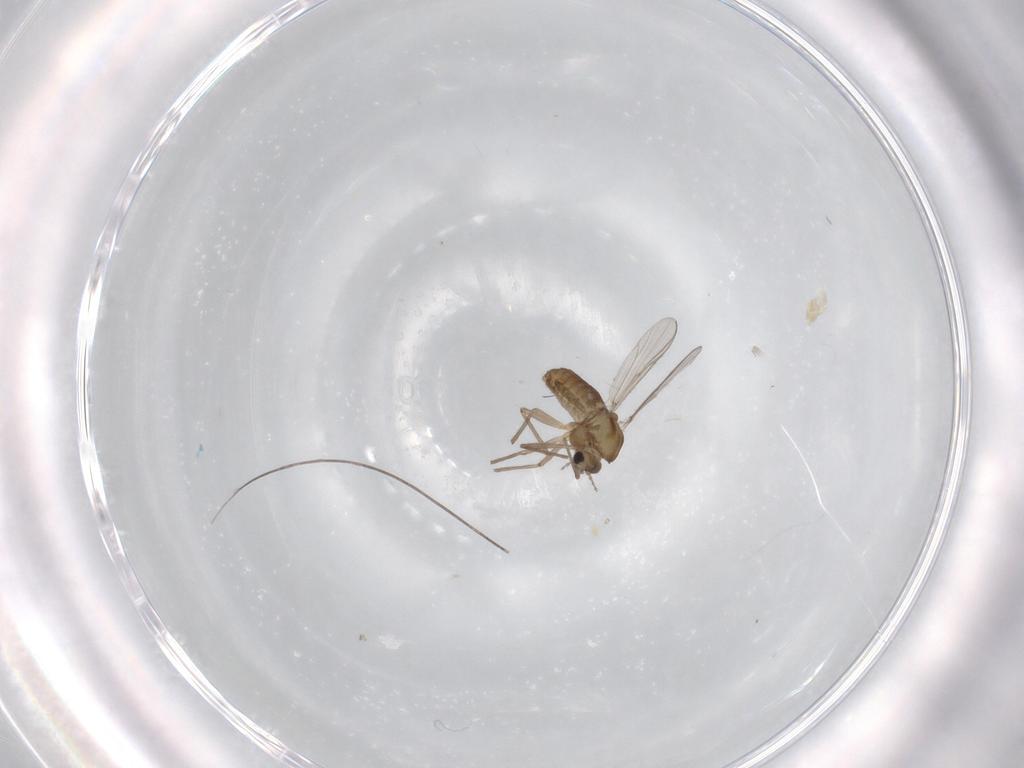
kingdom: Animalia
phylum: Arthropoda
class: Insecta
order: Diptera
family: Chironomidae
